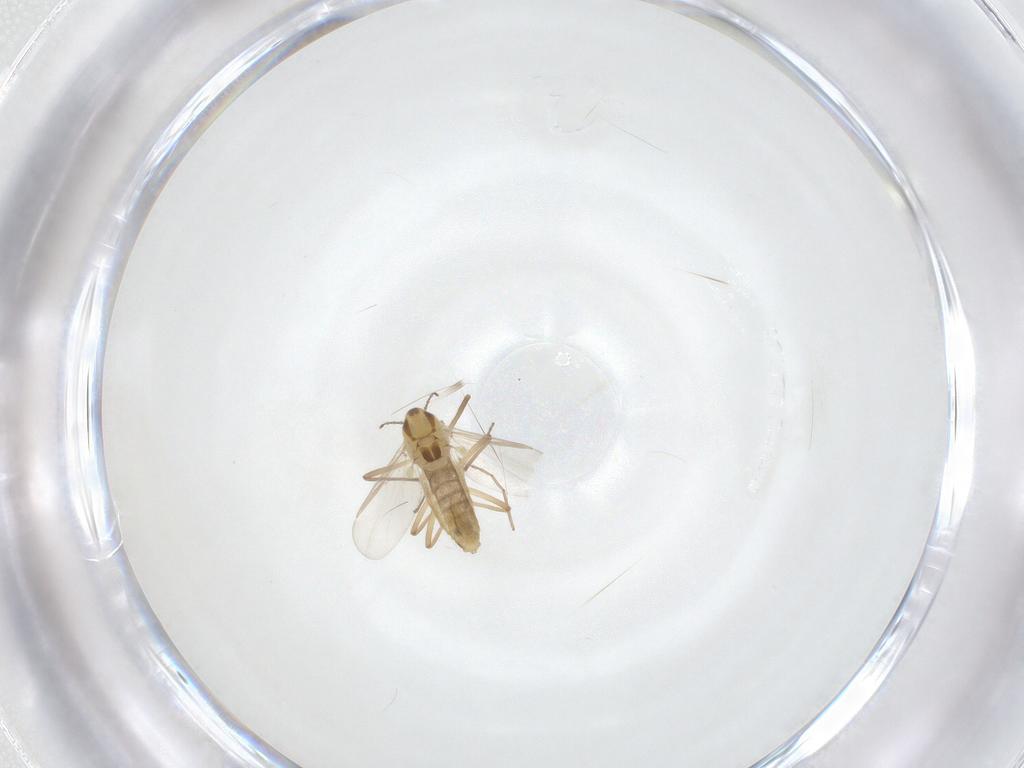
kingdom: Animalia
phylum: Arthropoda
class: Insecta
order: Diptera
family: Chironomidae
